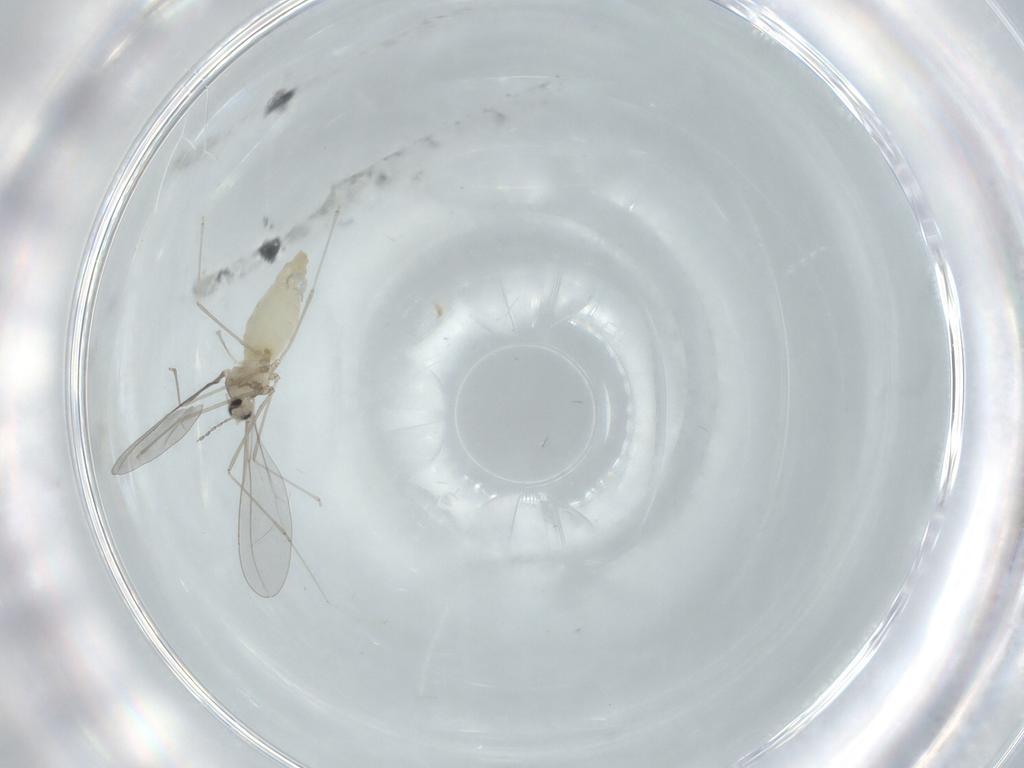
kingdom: Animalia
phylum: Arthropoda
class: Insecta
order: Diptera
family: Cecidomyiidae
